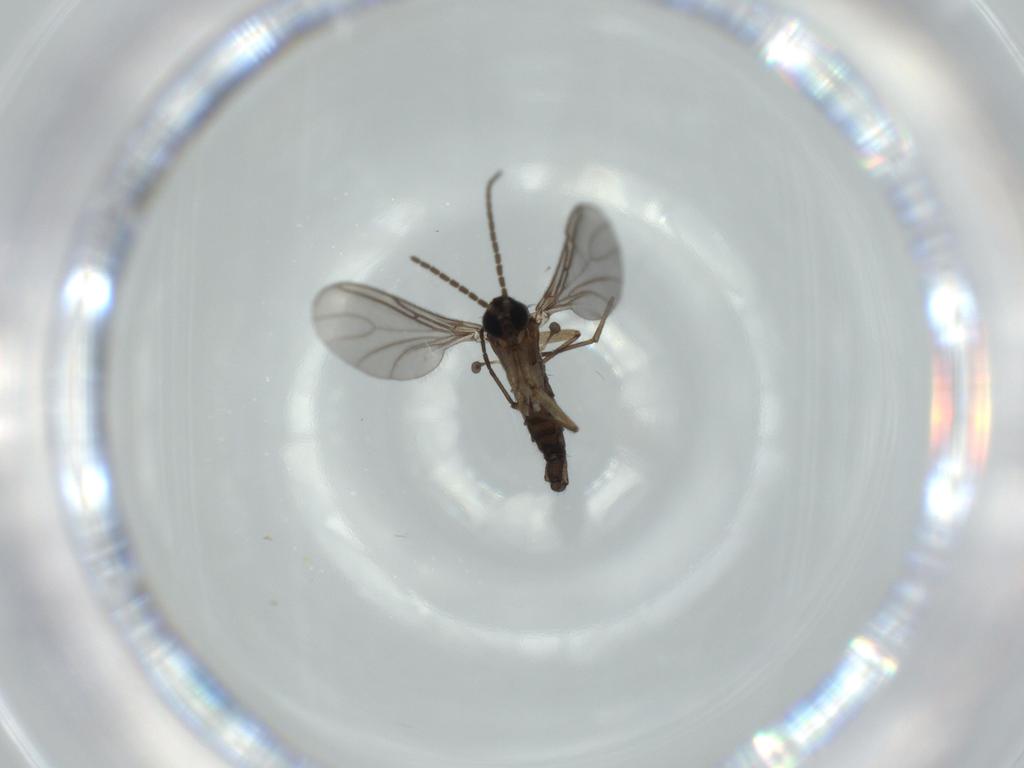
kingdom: Animalia
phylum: Arthropoda
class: Insecta
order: Diptera
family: Sciaridae
